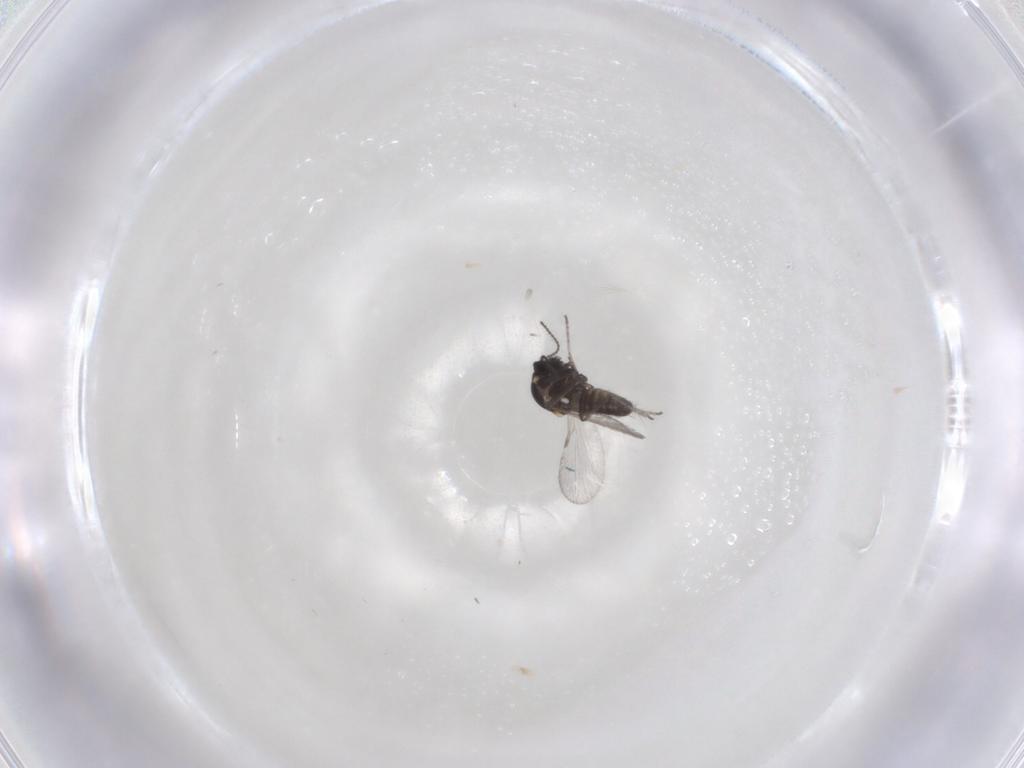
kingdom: Animalia
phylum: Arthropoda
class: Insecta
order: Diptera
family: Ceratopogonidae
